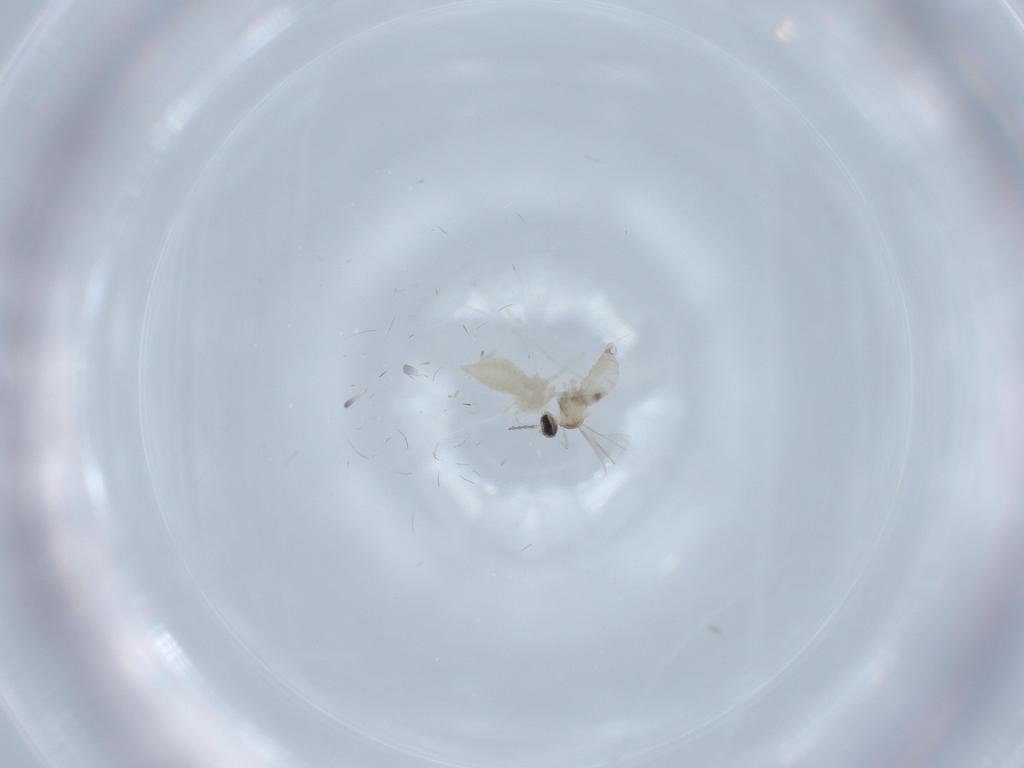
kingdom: Animalia
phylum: Arthropoda
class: Insecta
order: Diptera
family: Cecidomyiidae
